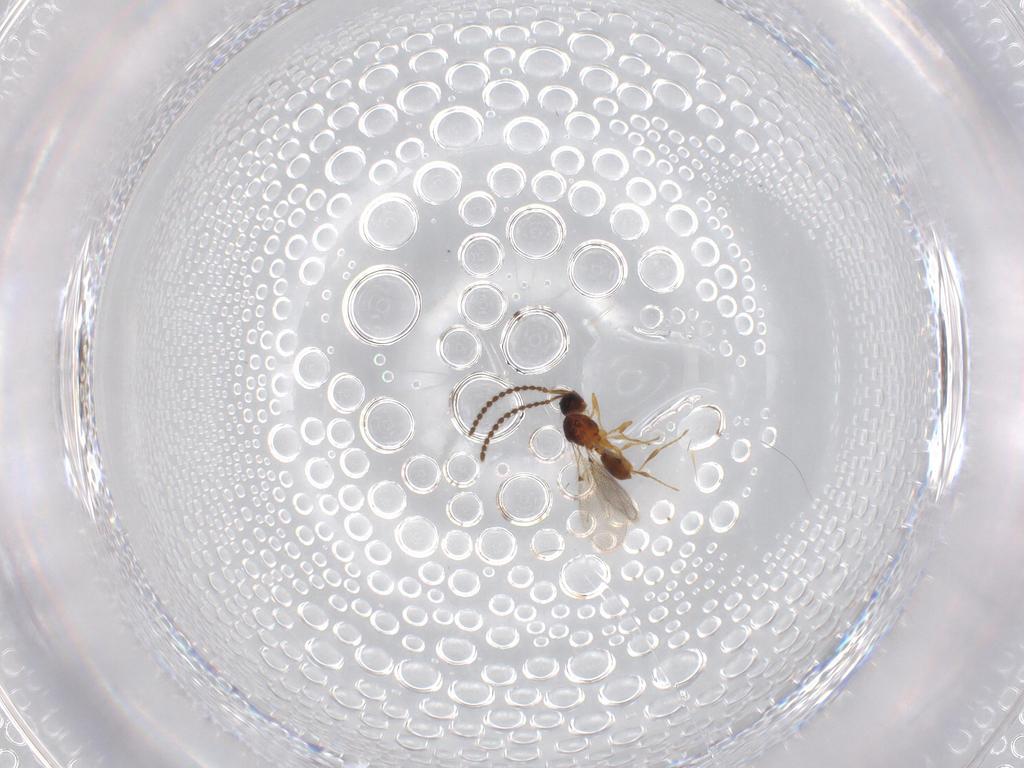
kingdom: Animalia
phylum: Arthropoda
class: Insecta
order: Hymenoptera
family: Diapriidae
